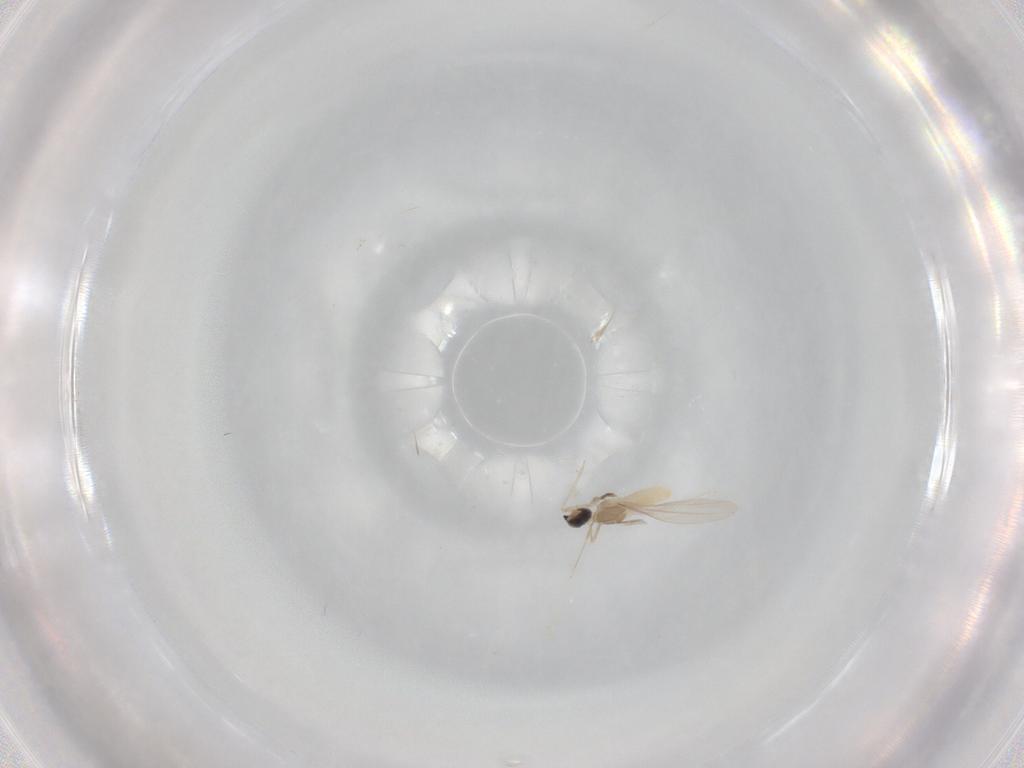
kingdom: Animalia
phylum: Arthropoda
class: Insecta
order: Diptera
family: Cecidomyiidae
